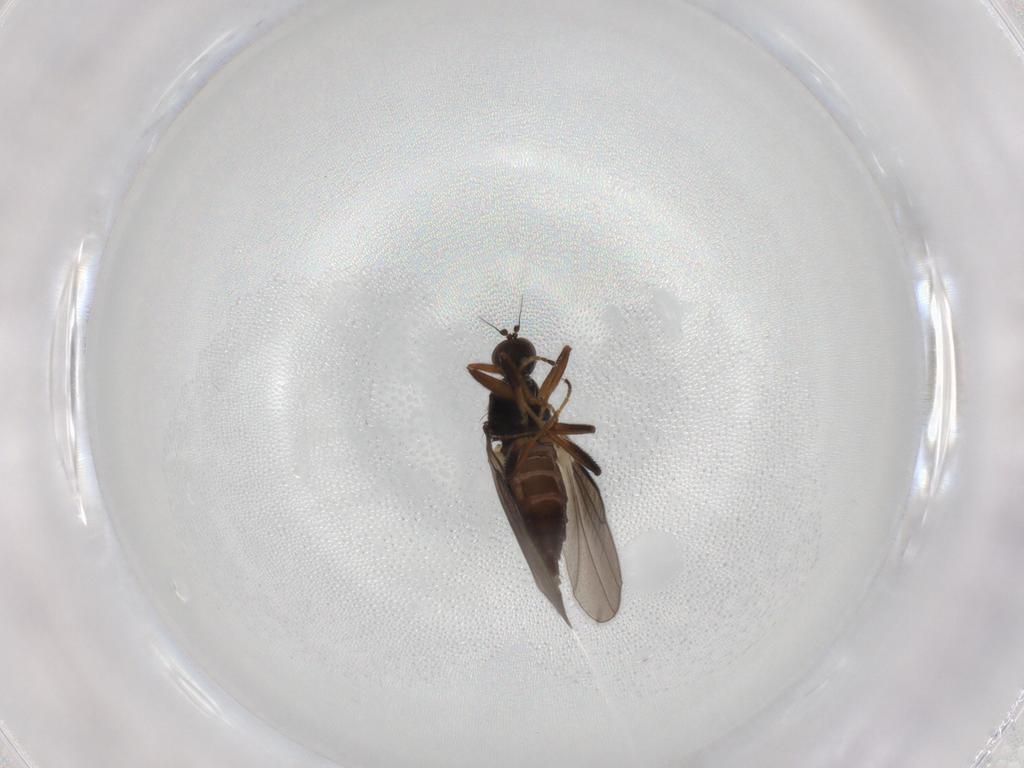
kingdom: Animalia
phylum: Arthropoda
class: Insecta
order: Diptera
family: Hybotidae
